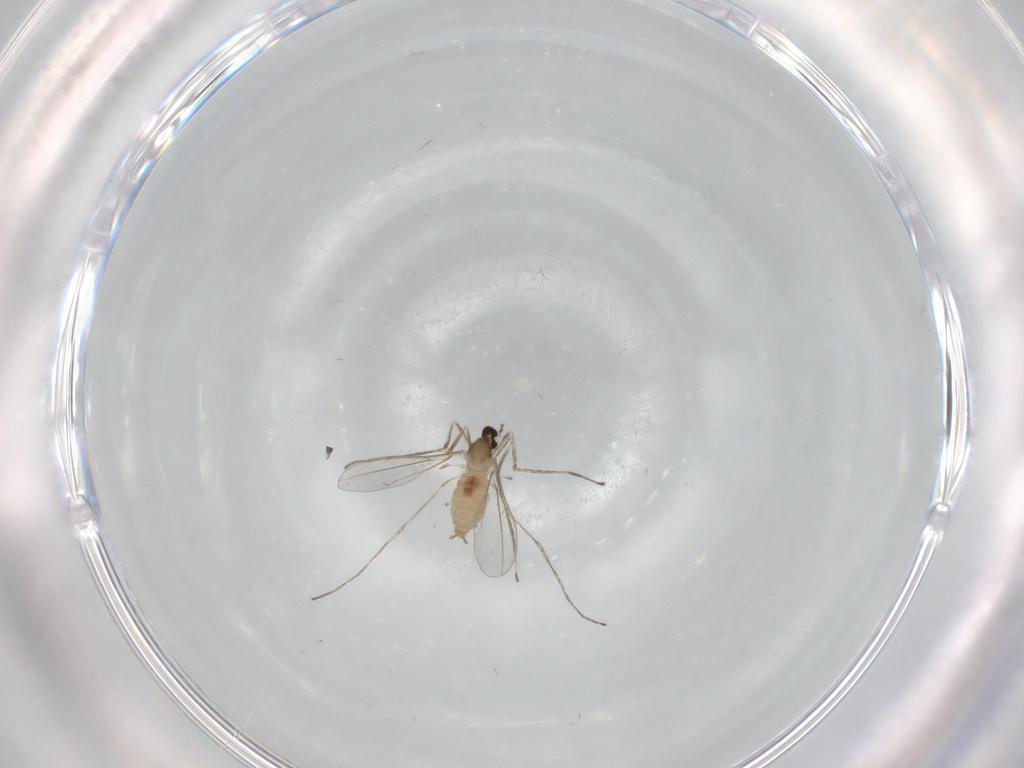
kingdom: Animalia
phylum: Arthropoda
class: Insecta
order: Diptera
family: Cecidomyiidae
